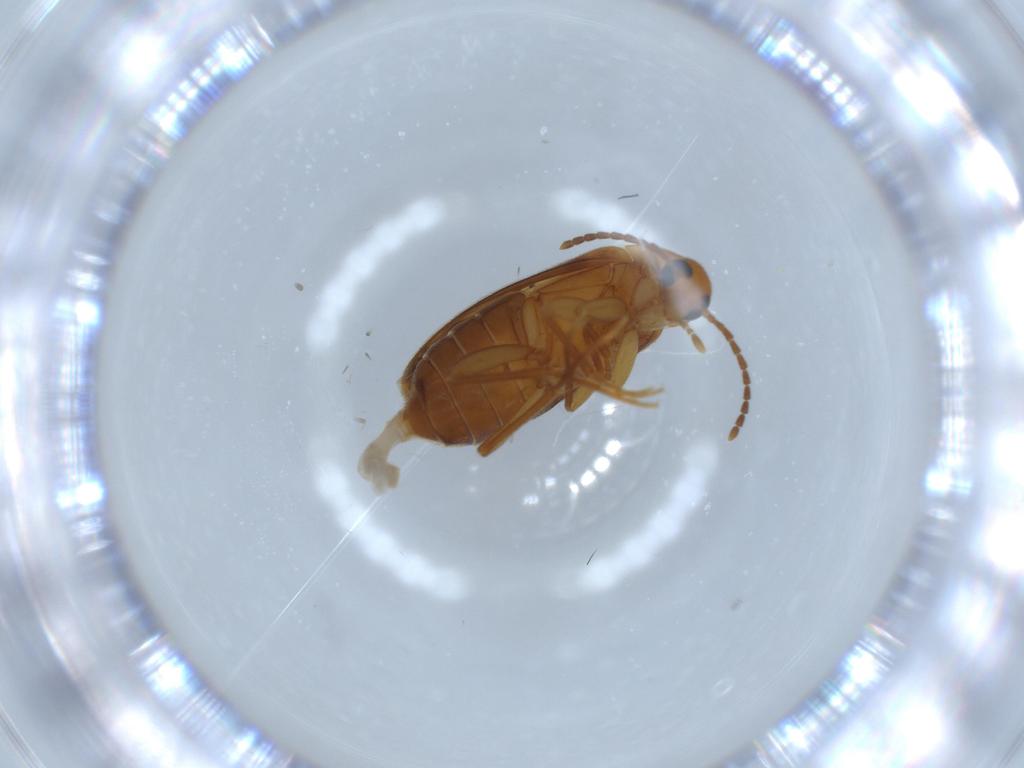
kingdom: Animalia
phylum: Arthropoda
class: Insecta
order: Coleoptera
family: Scraptiidae
